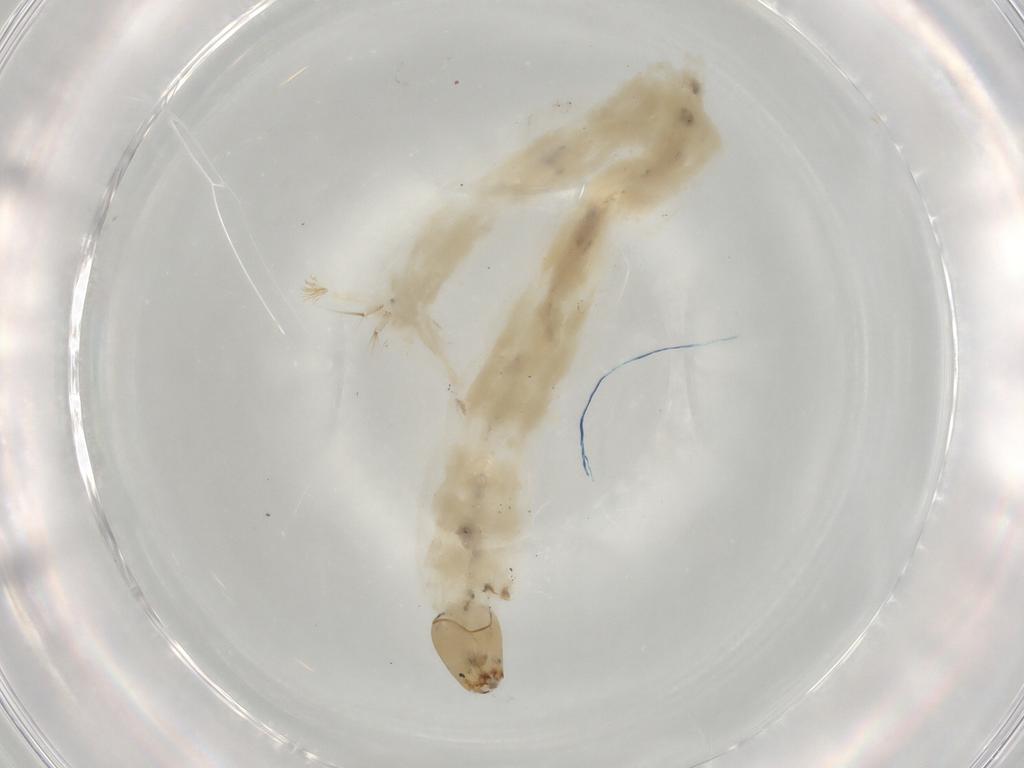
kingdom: Animalia
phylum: Arthropoda
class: Insecta
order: Diptera
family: Chironomidae
